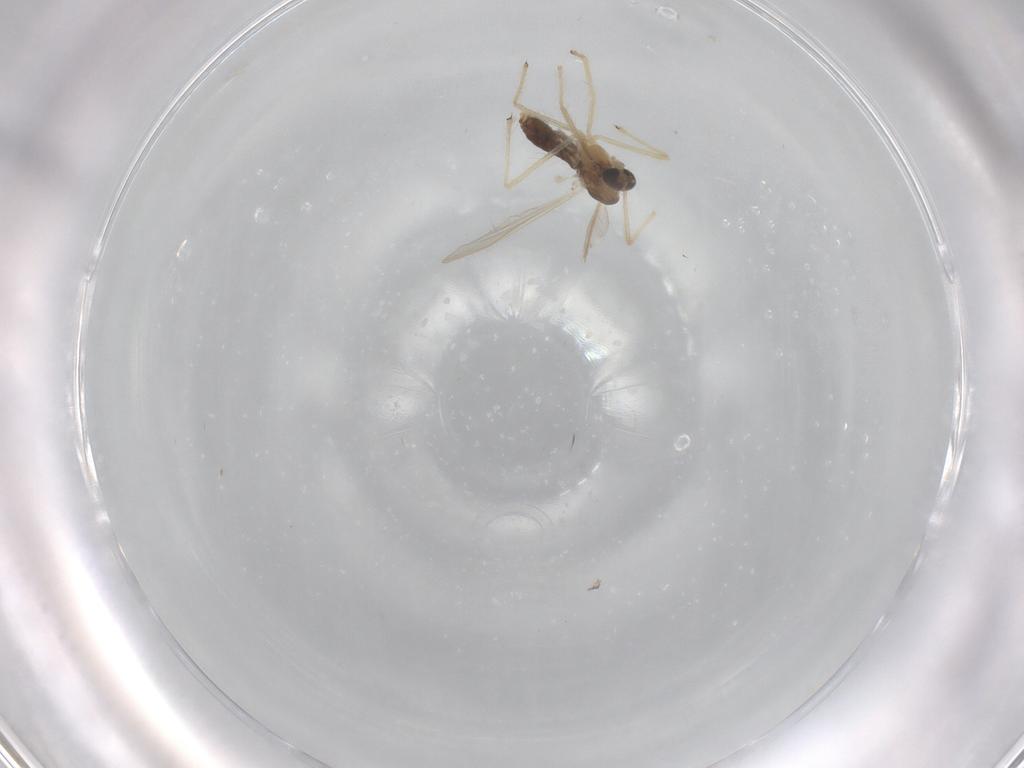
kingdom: Animalia
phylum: Arthropoda
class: Insecta
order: Diptera
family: Chironomidae
